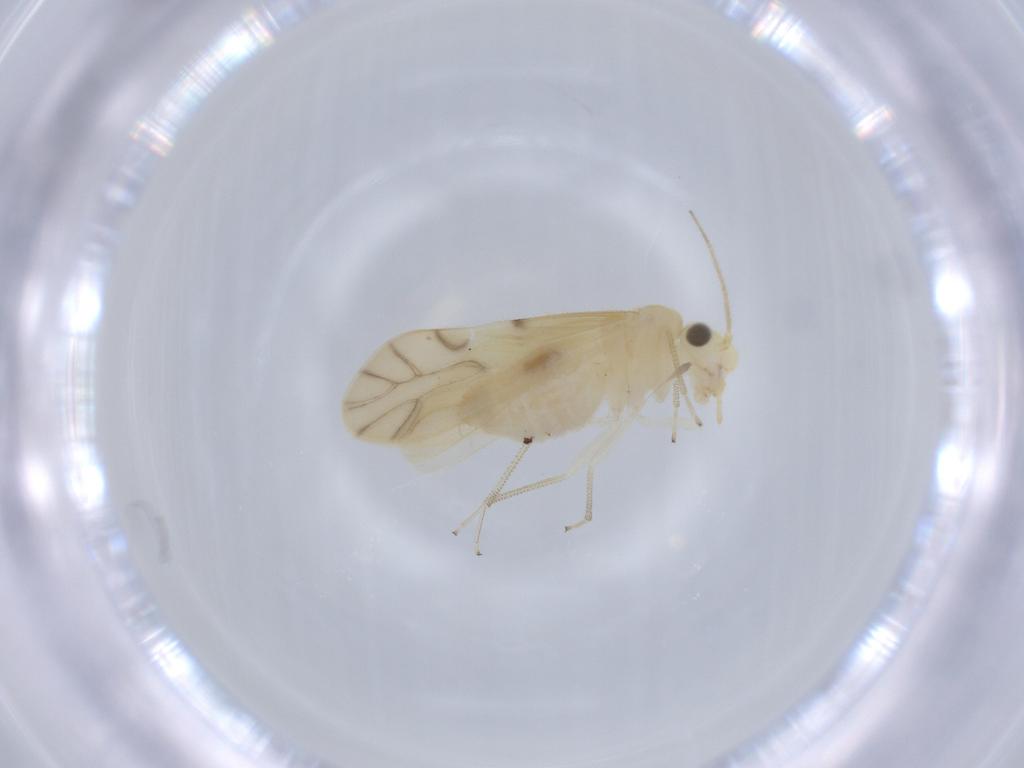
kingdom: Animalia
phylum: Arthropoda
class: Insecta
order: Psocodea
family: Caeciliusidae
